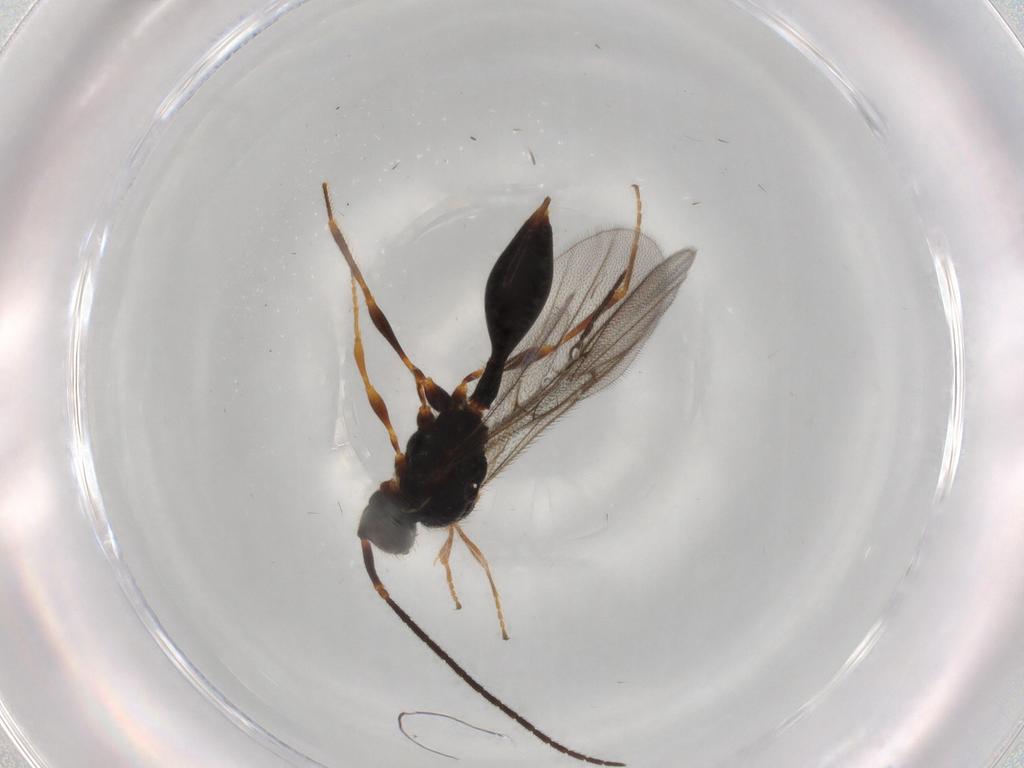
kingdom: Animalia
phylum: Arthropoda
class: Insecta
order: Hymenoptera
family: Diapriidae
